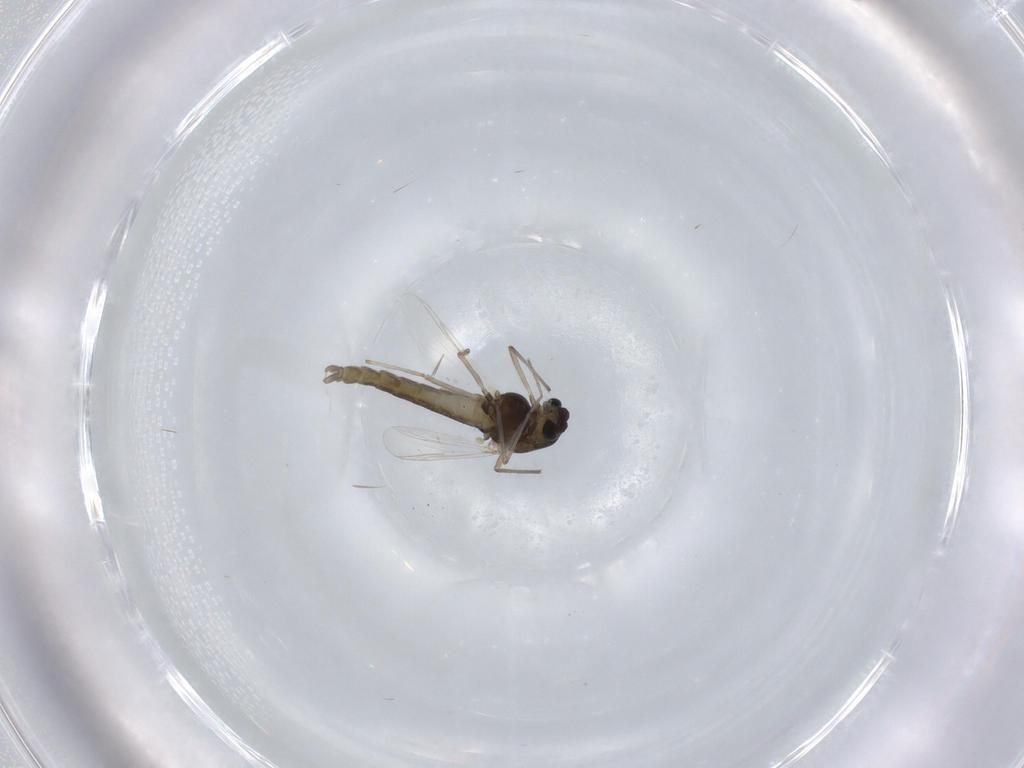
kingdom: Animalia
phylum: Arthropoda
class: Insecta
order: Diptera
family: Chironomidae
